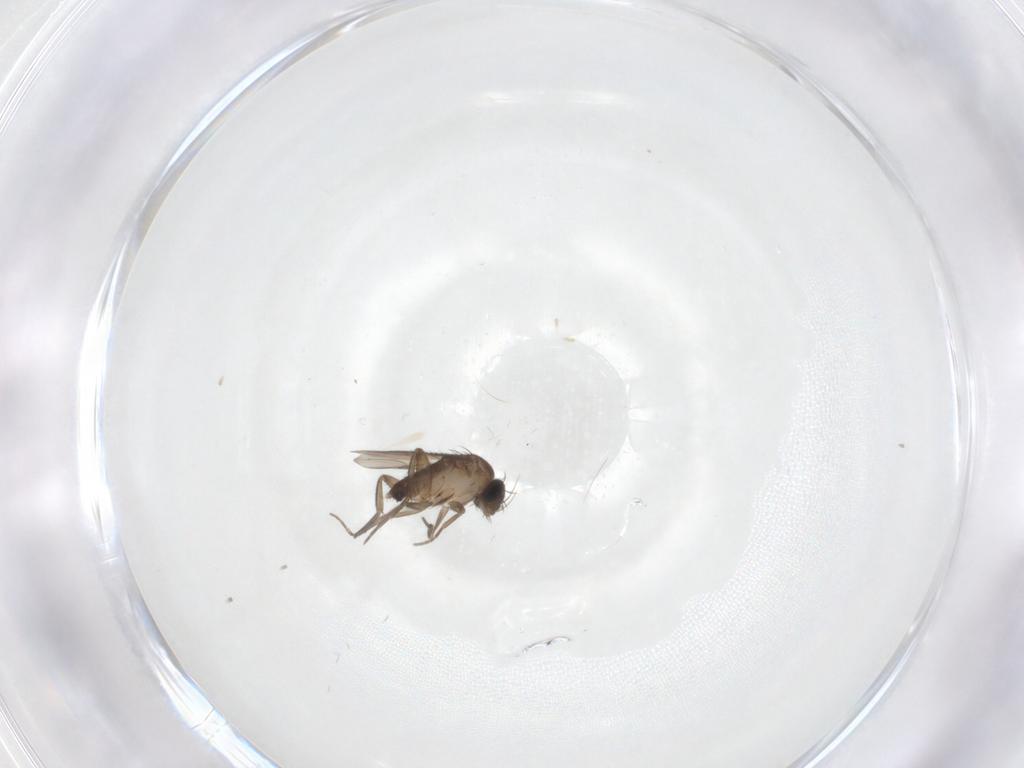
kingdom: Animalia
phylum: Arthropoda
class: Insecta
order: Diptera
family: Phoridae
